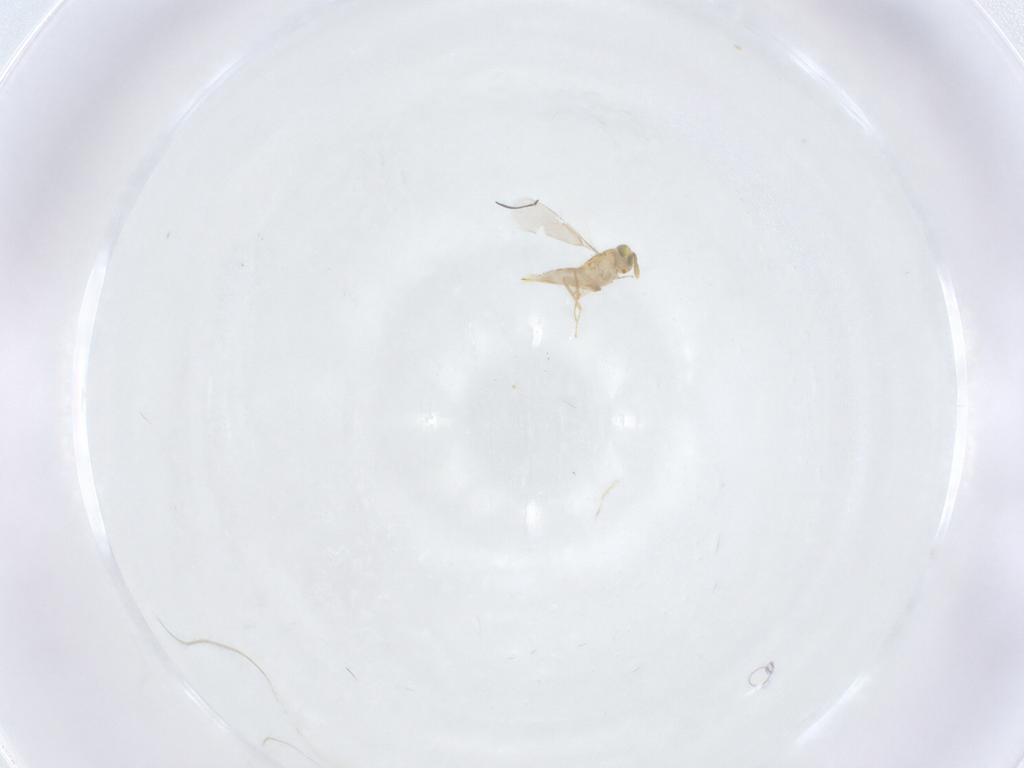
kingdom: Animalia
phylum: Arthropoda
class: Insecta
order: Hymenoptera
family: Aphelinidae
